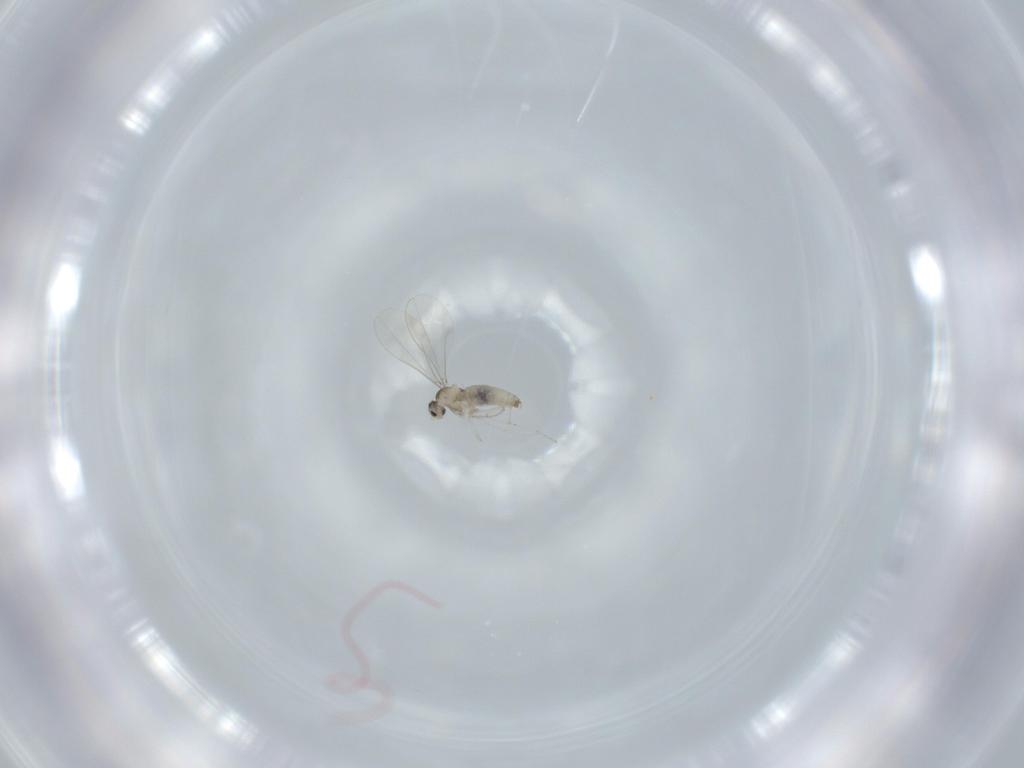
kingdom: Animalia
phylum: Arthropoda
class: Insecta
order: Diptera
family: Cecidomyiidae
